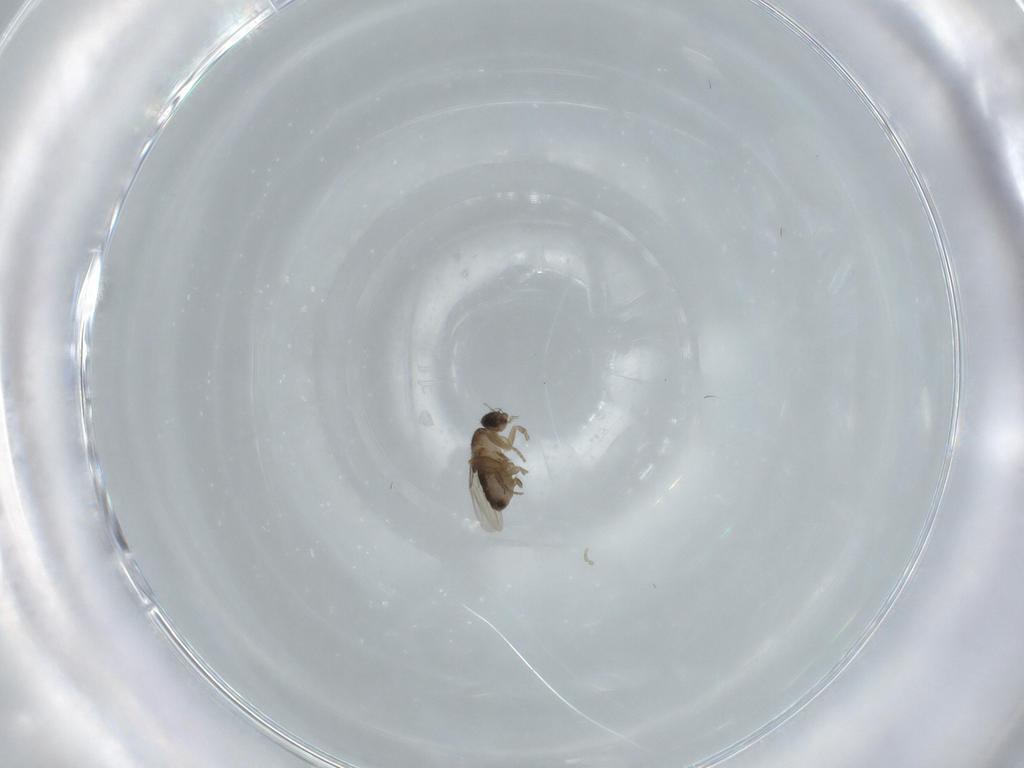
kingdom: Animalia
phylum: Arthropoda
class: Insecta
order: Diptera
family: Phoridae
